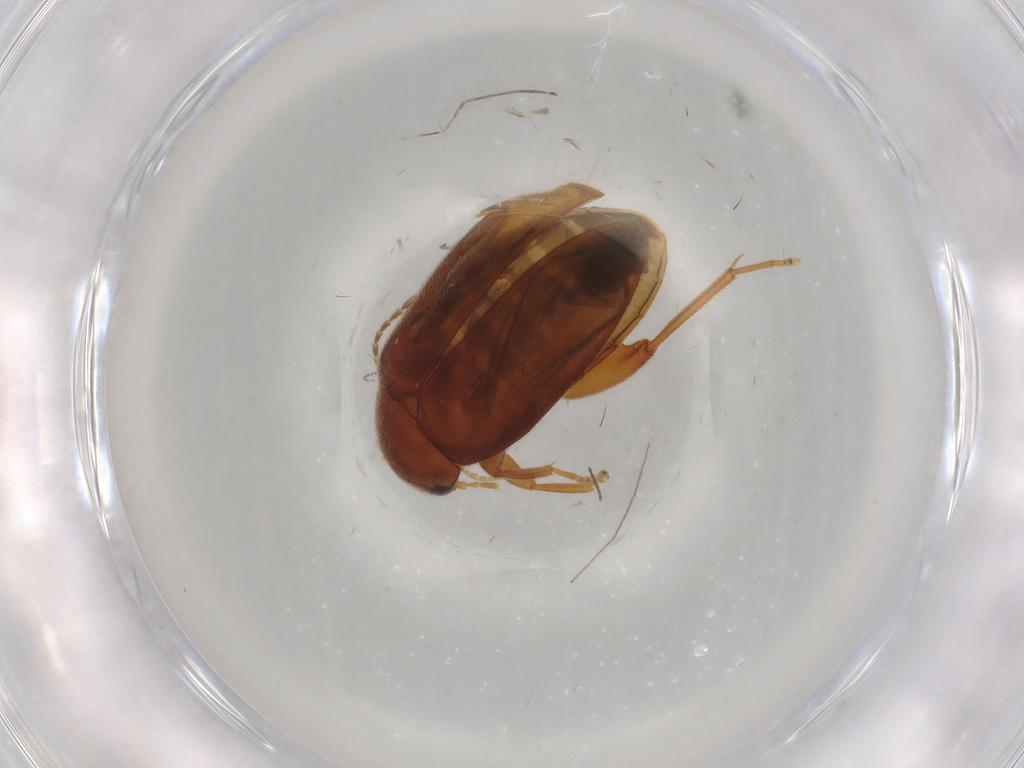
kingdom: Animalia
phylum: Arthropoda
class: Insecta
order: Coleoptera
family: Scirtidae
